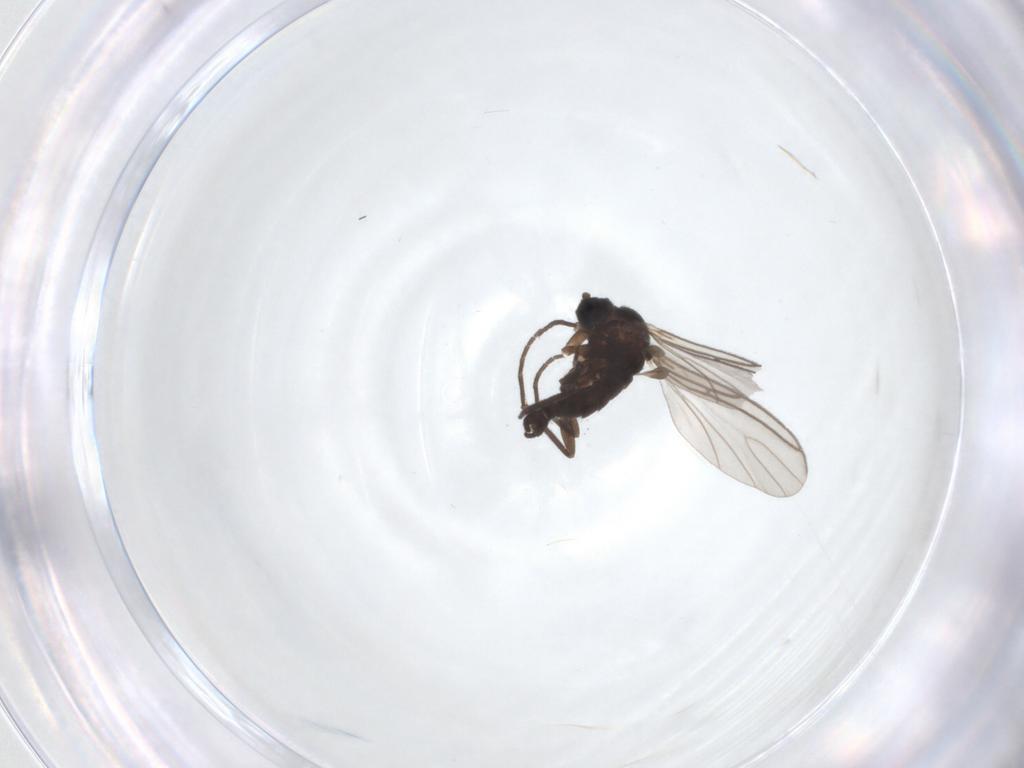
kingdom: Animalia
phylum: Arthropoda
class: Insecta
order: Diptera
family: Sciaridae
